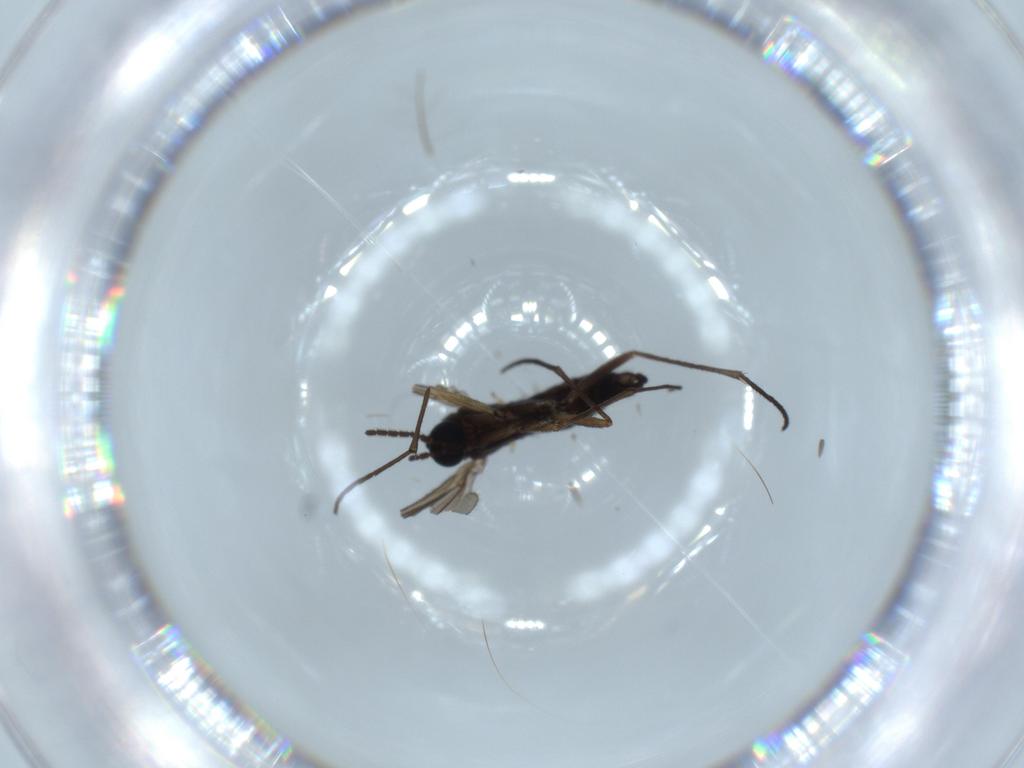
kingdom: Animalia
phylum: Arthropoda
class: Insecta
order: Diptera
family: Sciaridae
